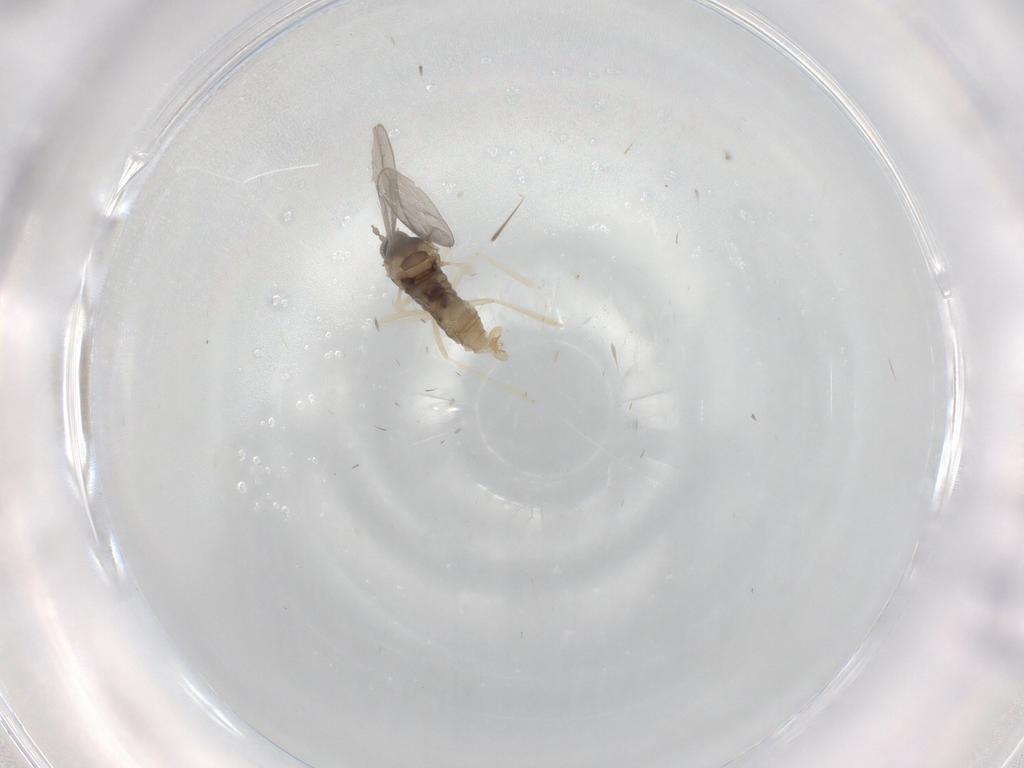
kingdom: Animalia
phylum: Arthropoda
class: Insecta
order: Diptera
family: Cecidomyiidae
